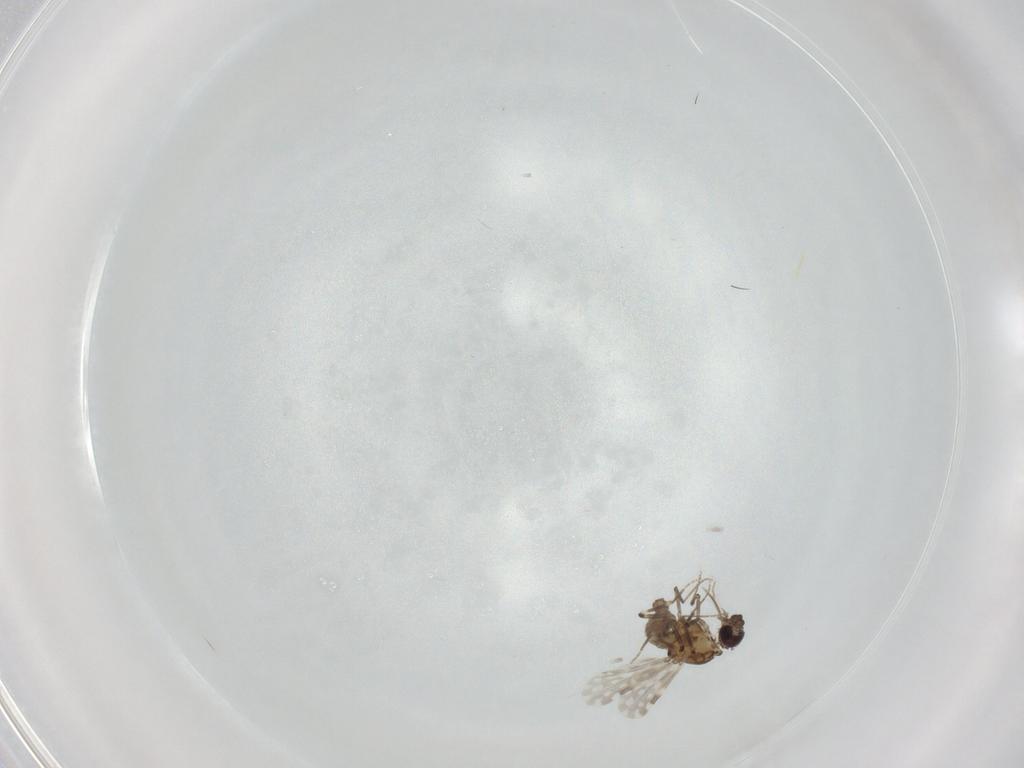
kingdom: Animalia
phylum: Arthropoda
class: Insecta
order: Diptera
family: Ceratopogonidae
